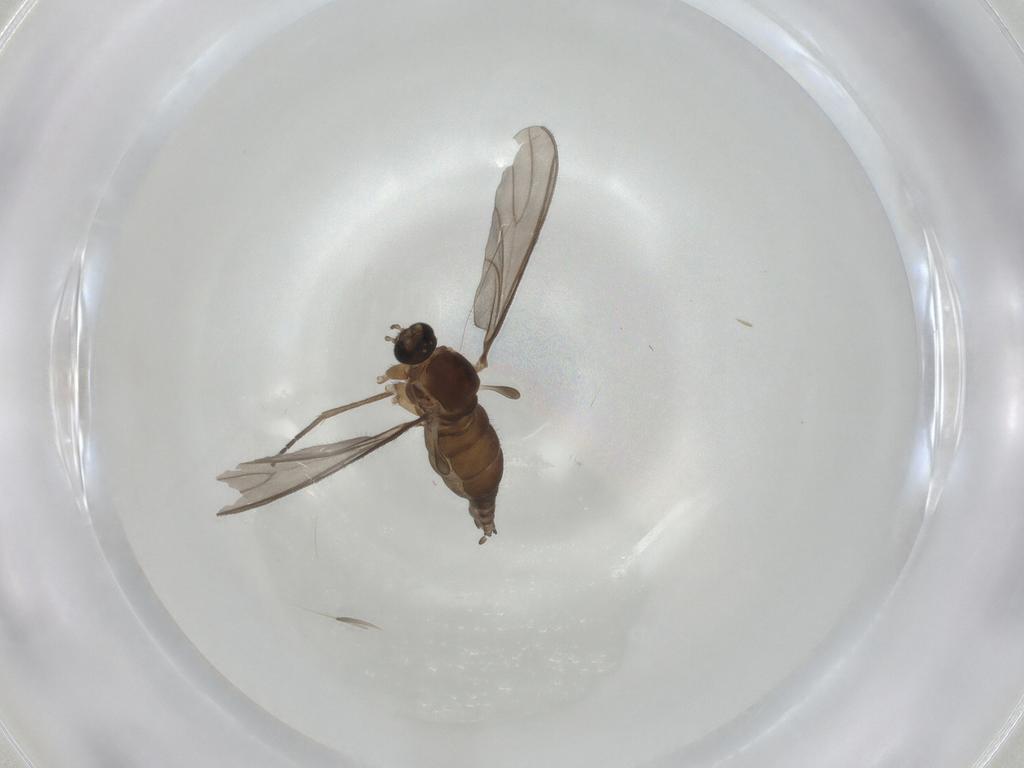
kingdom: Animalia
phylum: Arthropoda
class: Insecta
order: Diptera
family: Sciaridae
